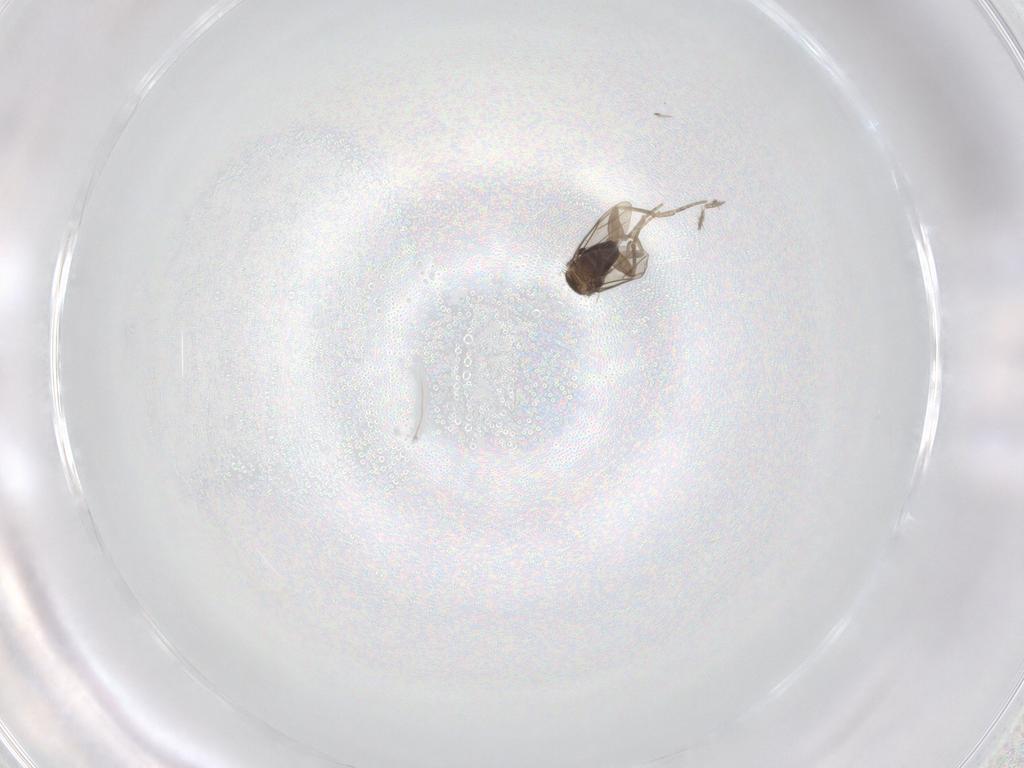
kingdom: Animalia
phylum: Arthropoda
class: Insecta
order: Diptera
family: Phoridae
